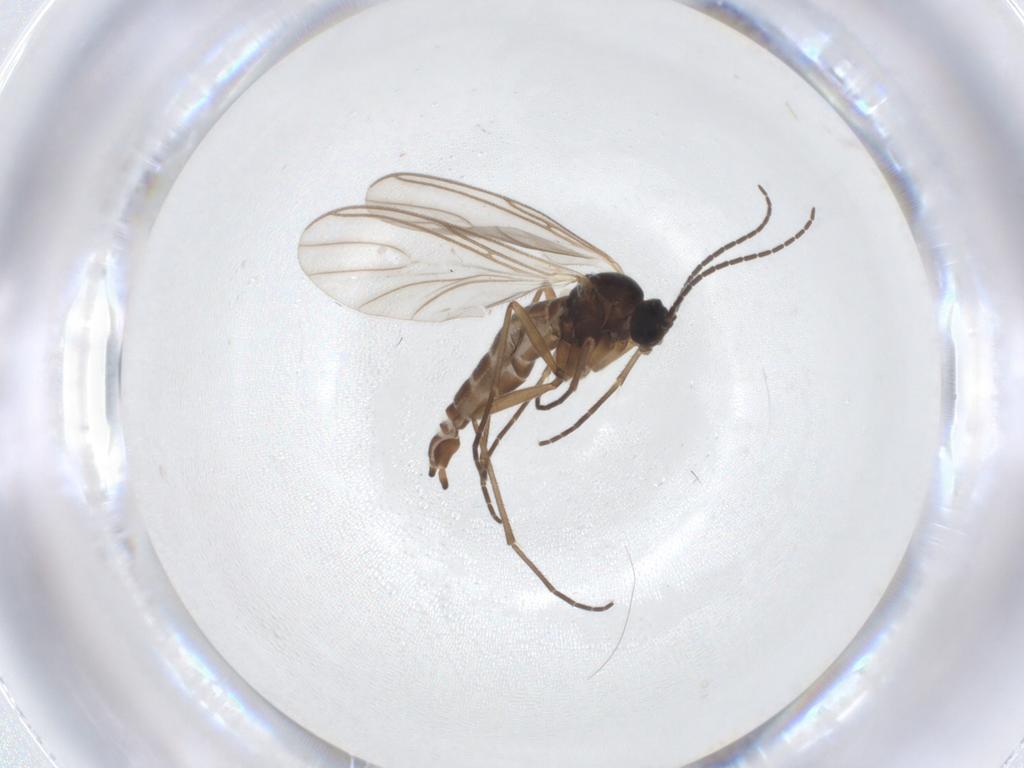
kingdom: Animalia
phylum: Arthropoda
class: Insecta
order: Diptera
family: Sciaridae
